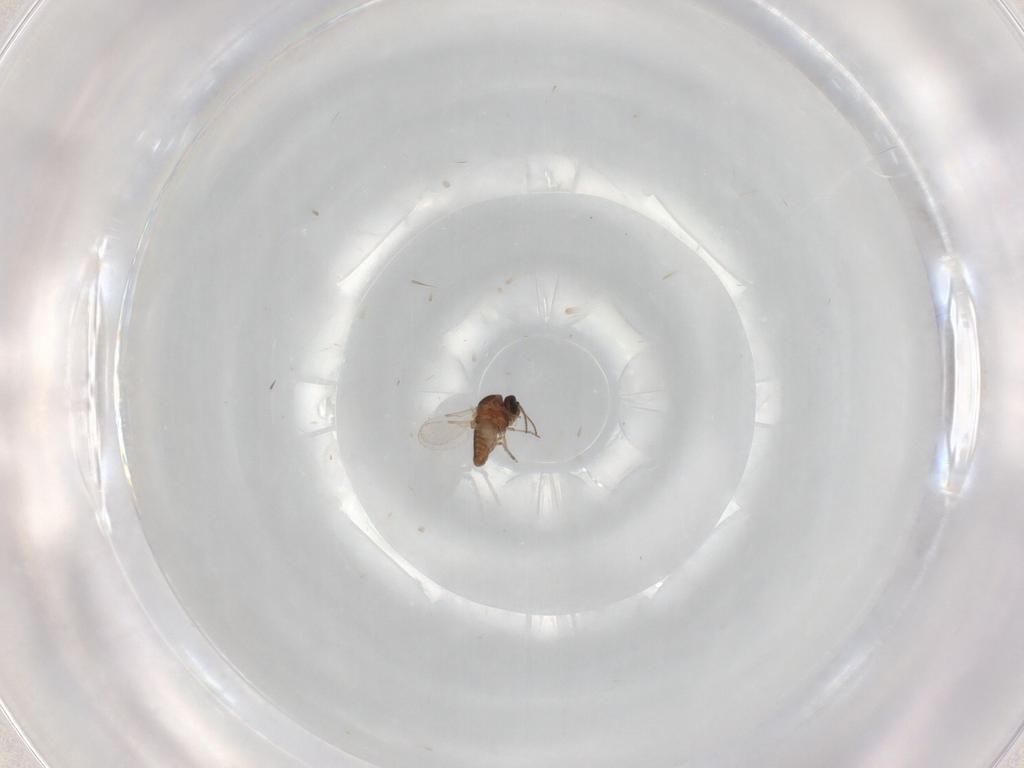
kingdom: Animalia
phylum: Arthropoda
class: Insecta
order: Diptera
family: Ceratopogonidae
